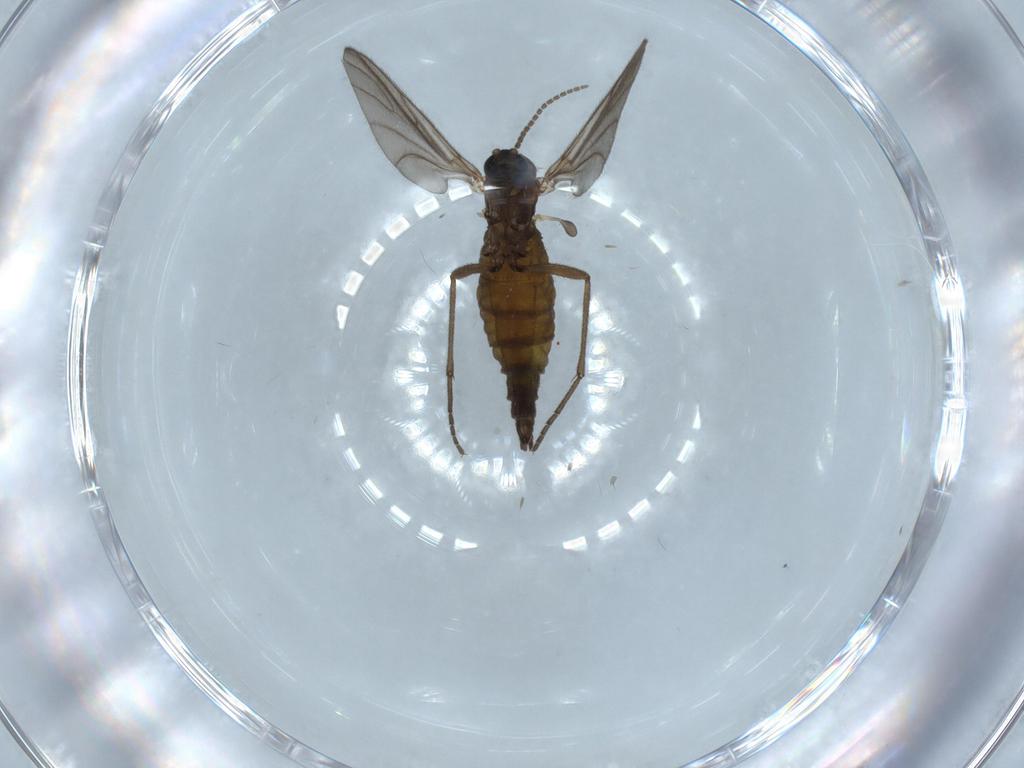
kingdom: Animalia
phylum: Arthropoda
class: Insecta
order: Diptera
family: Sciaridae
